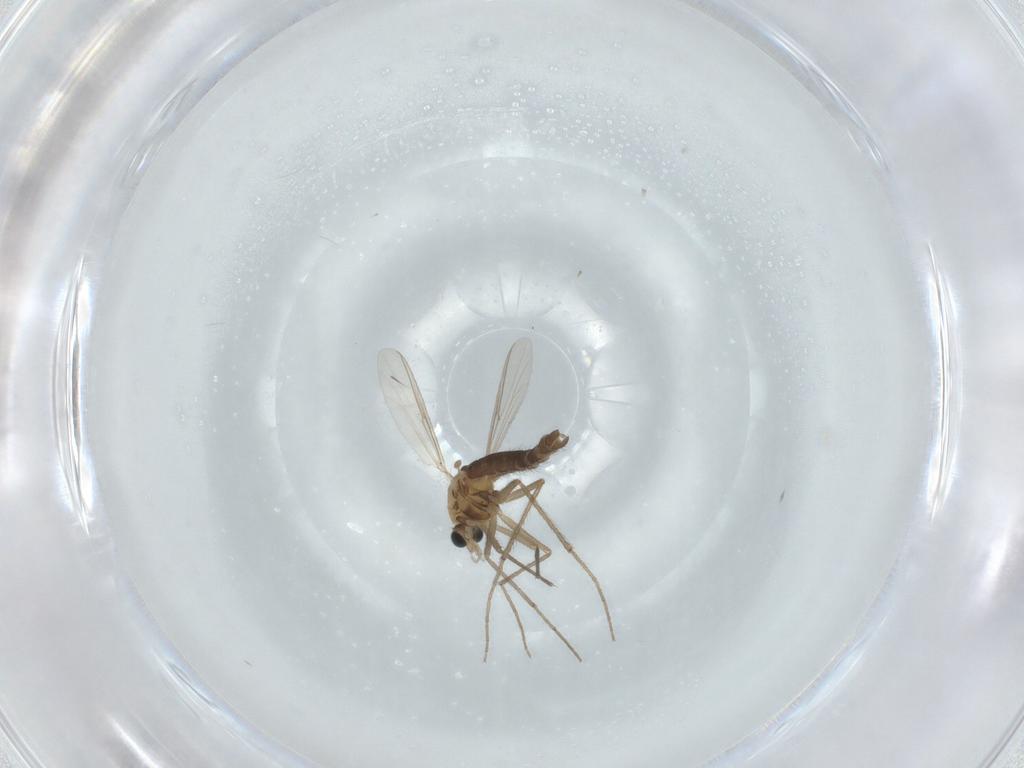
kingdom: Animalia
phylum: Arthropoda
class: Insecta
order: Diptera
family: Chironomidae
